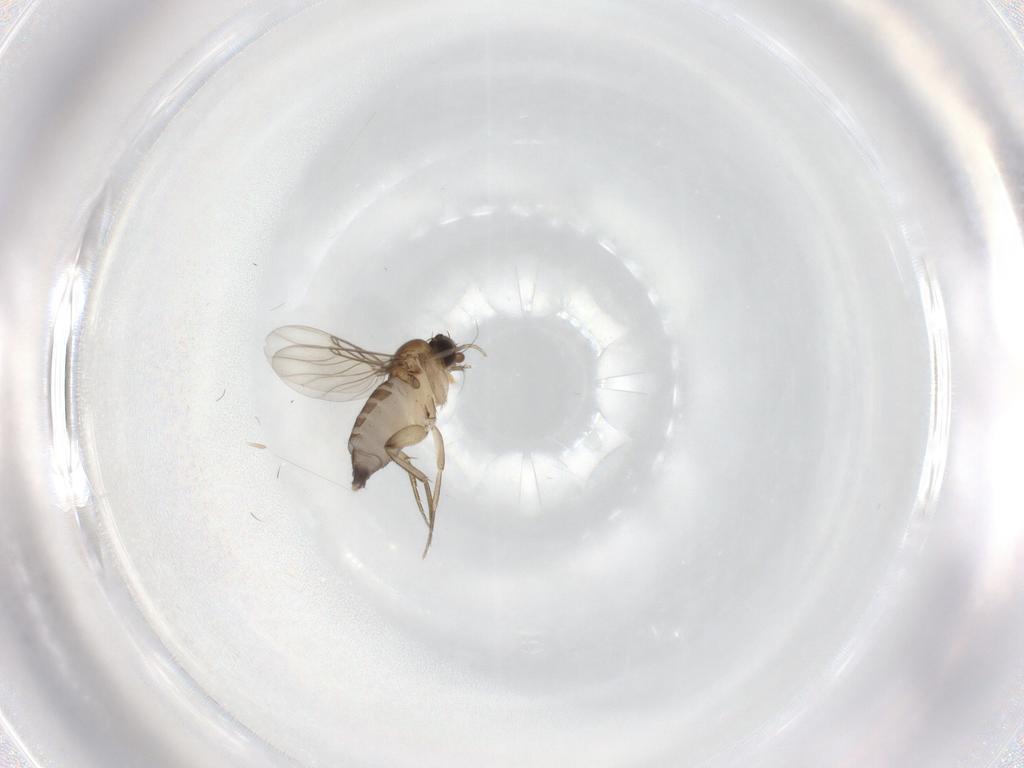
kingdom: Animalia
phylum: Arthropoda
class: Insecta
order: Diptera
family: Phoridae
